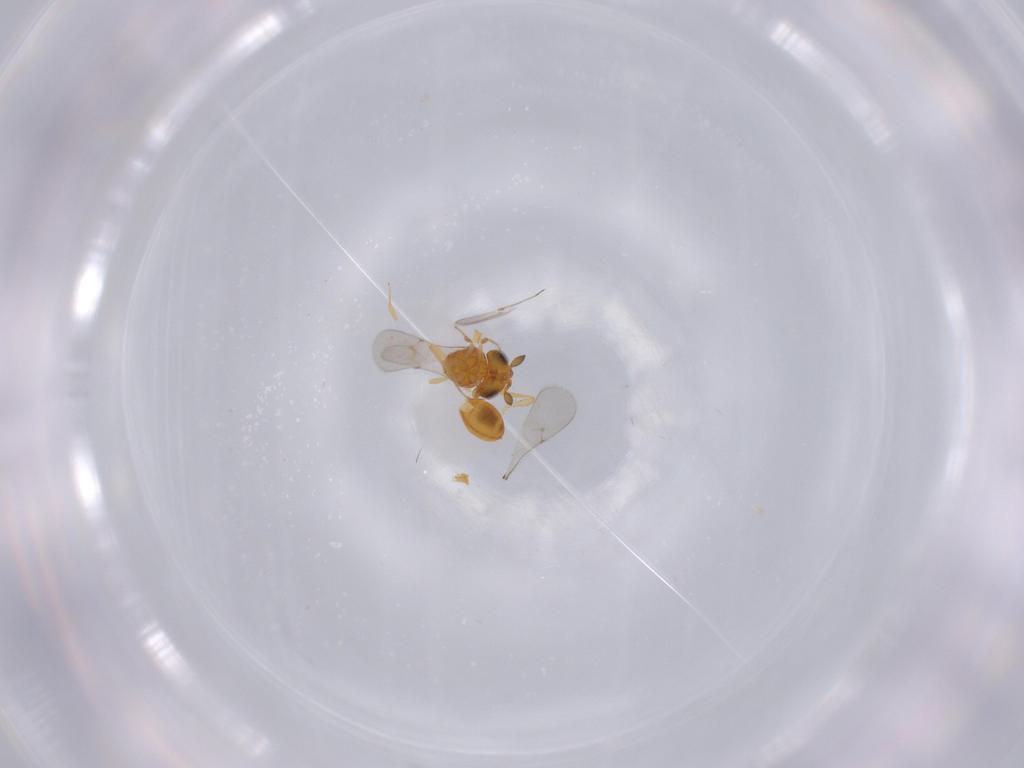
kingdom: Animalia
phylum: Arthropoda
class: Insecta
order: Hymenoptera
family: Scelionidae
